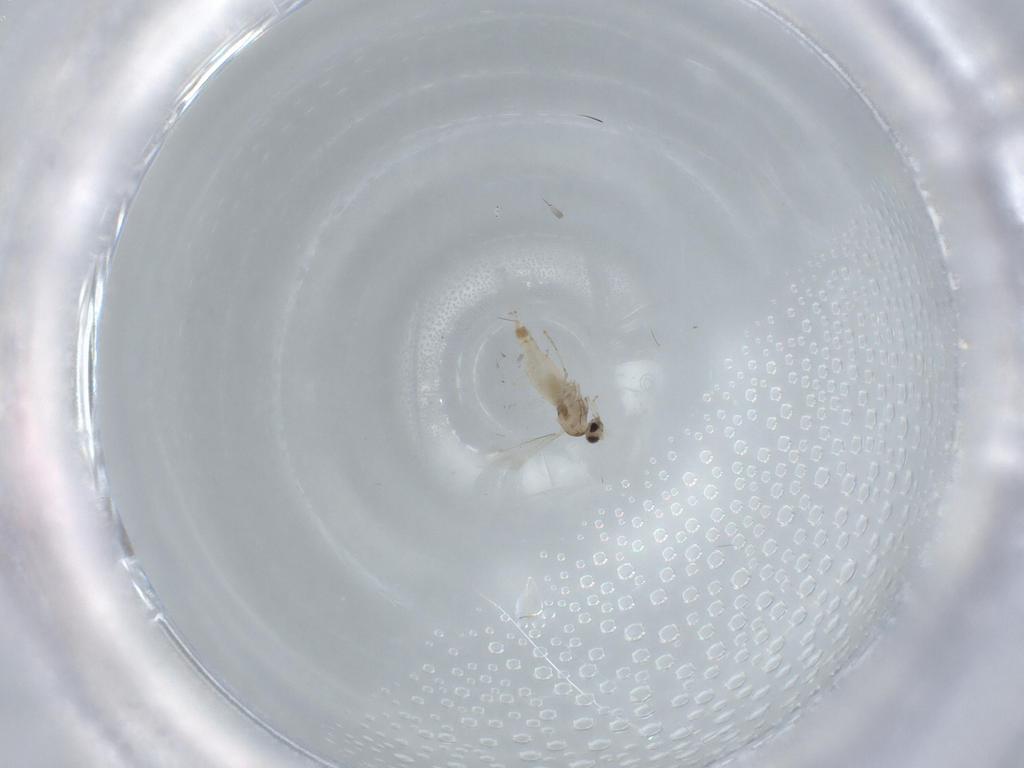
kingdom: Animalia
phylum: Arthropoda
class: Insecta
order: Diptera
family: Cecidomyiidae
